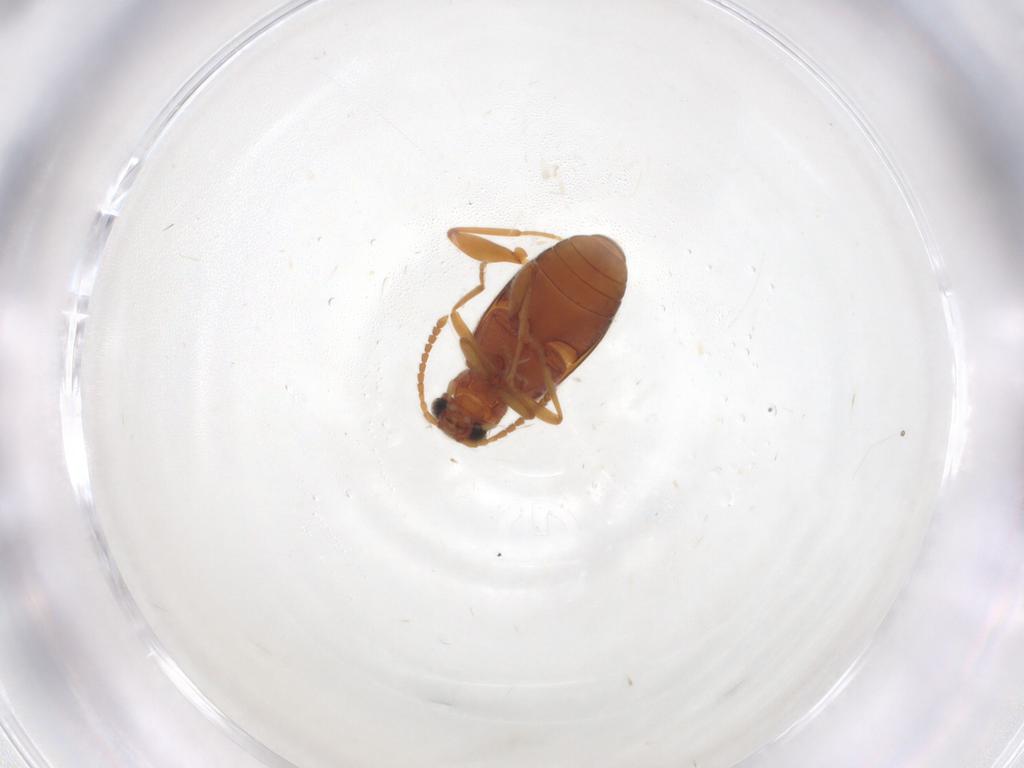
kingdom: Animalia
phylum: Arthropoda
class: Insecta
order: Coleoptera
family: Aderidae
